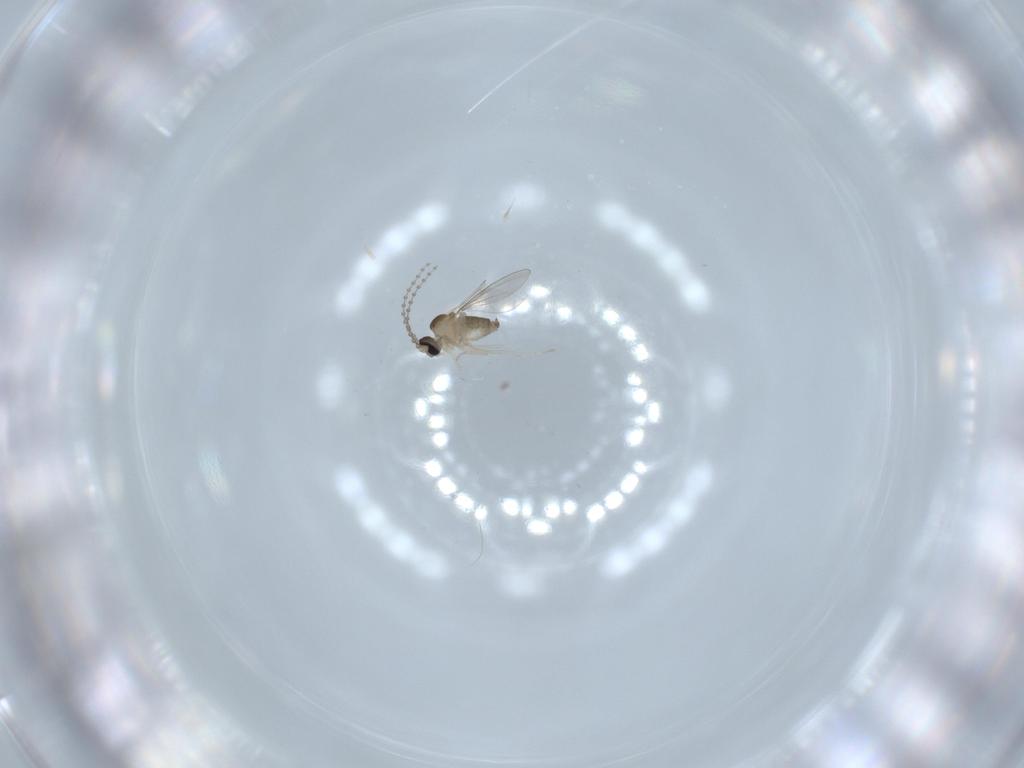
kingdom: Animalia
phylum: Arthropoda
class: Insecta
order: Diptera
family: Cecidomyiidae
